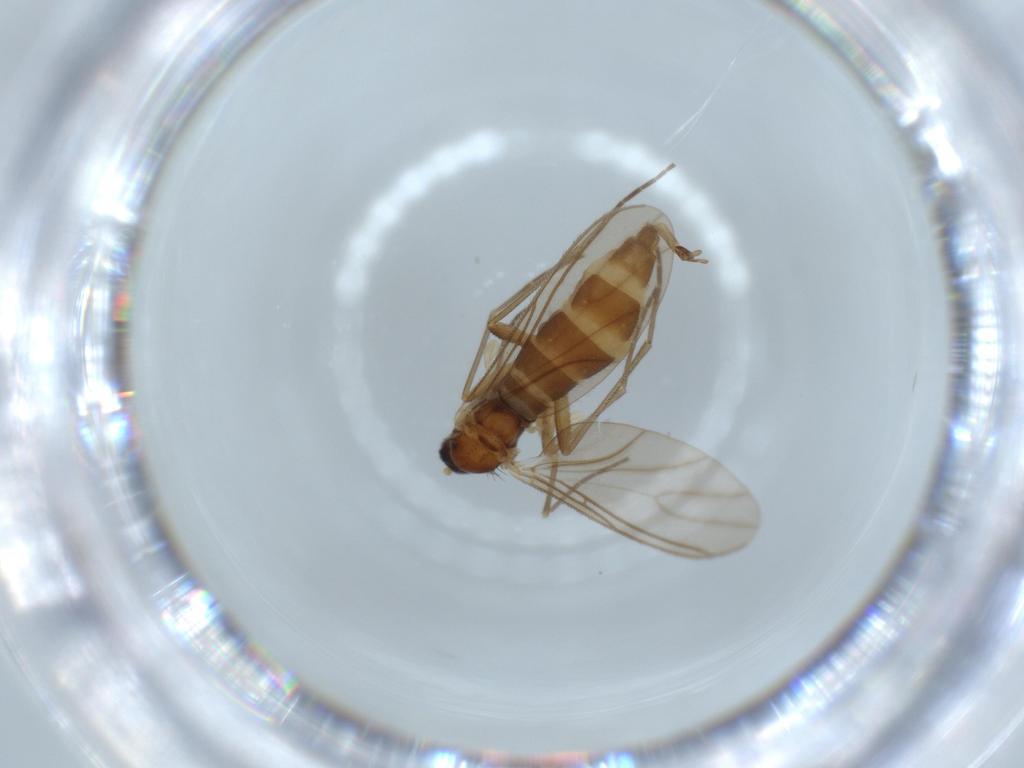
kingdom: Animalia
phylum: Arthropoda
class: Insecta
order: Diptera
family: Sciaridae
